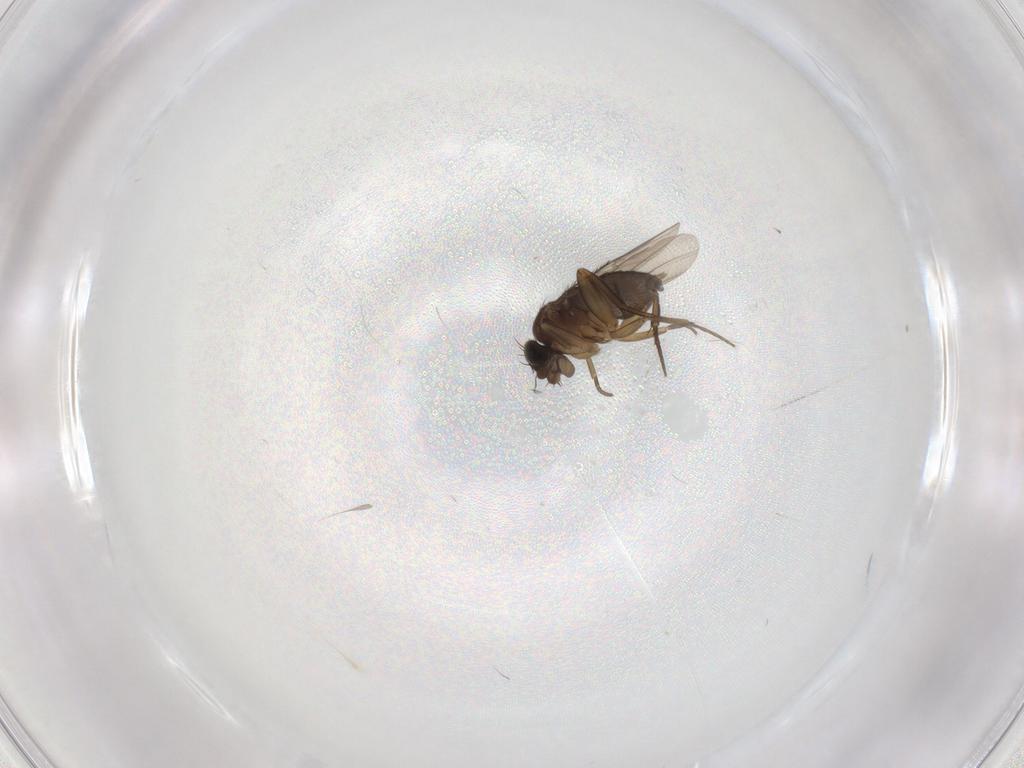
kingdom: Animalia
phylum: Arthropoda
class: Insecta
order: Diptera
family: Phoridae
